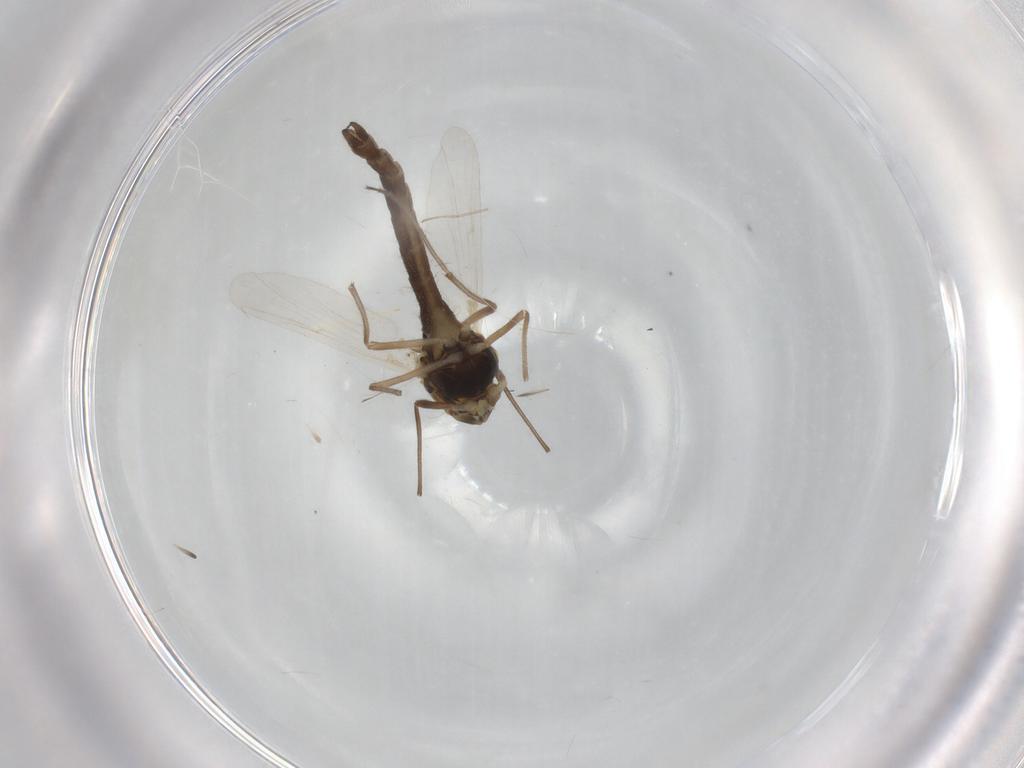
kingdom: Animalia
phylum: Arthropoda
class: Insecta
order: Diptera
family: Chironomidae
